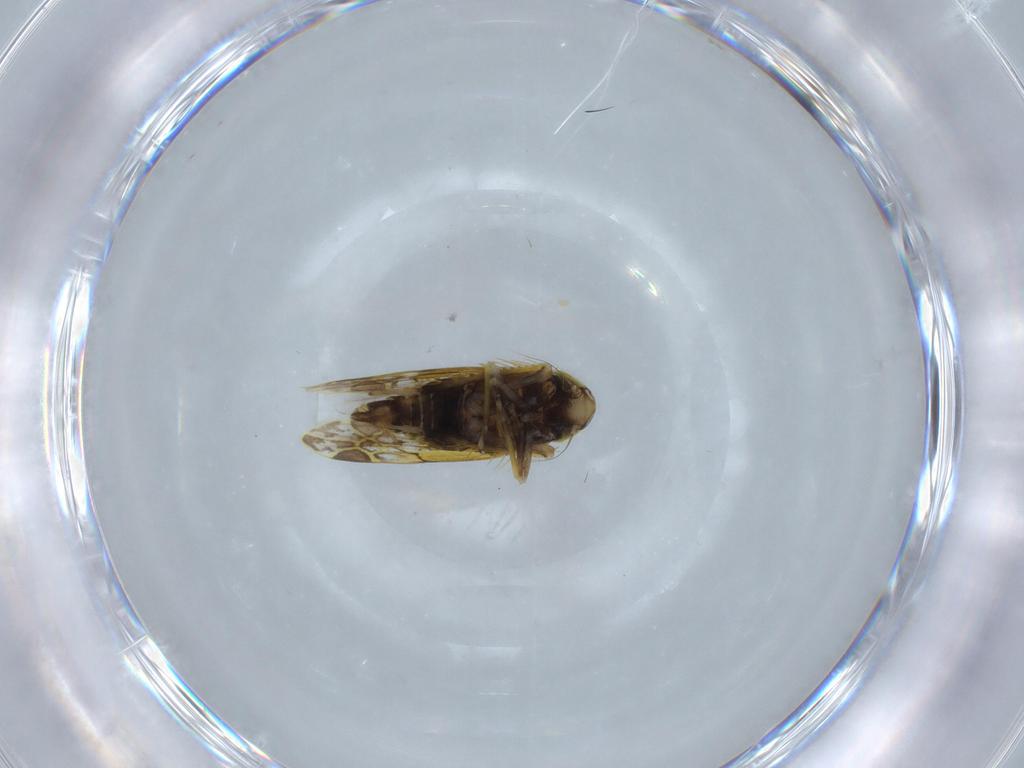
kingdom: Animalia
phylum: Arthropoda
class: Insecta
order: Hemiptera
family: Cicadellidae
